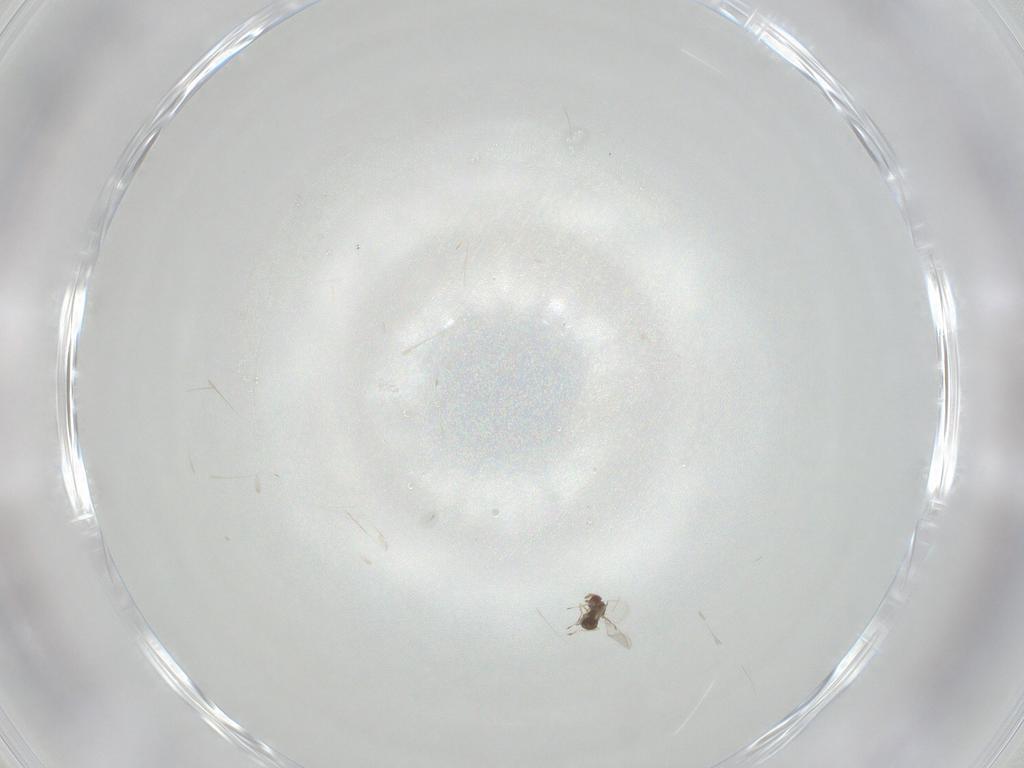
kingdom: Animalia
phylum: Arthropoda
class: Insecta
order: Hymenoptera
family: Trichogrammatidae
